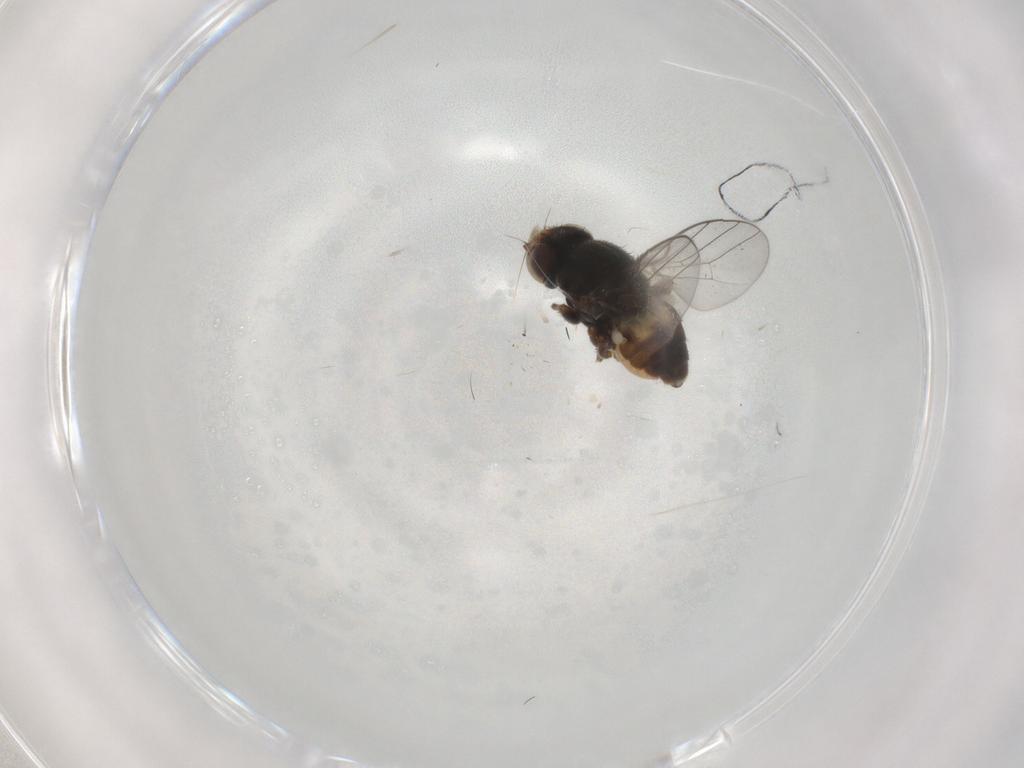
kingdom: Animalia
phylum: Arthropoda
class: Insecta
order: Diptera
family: Chloropidae
